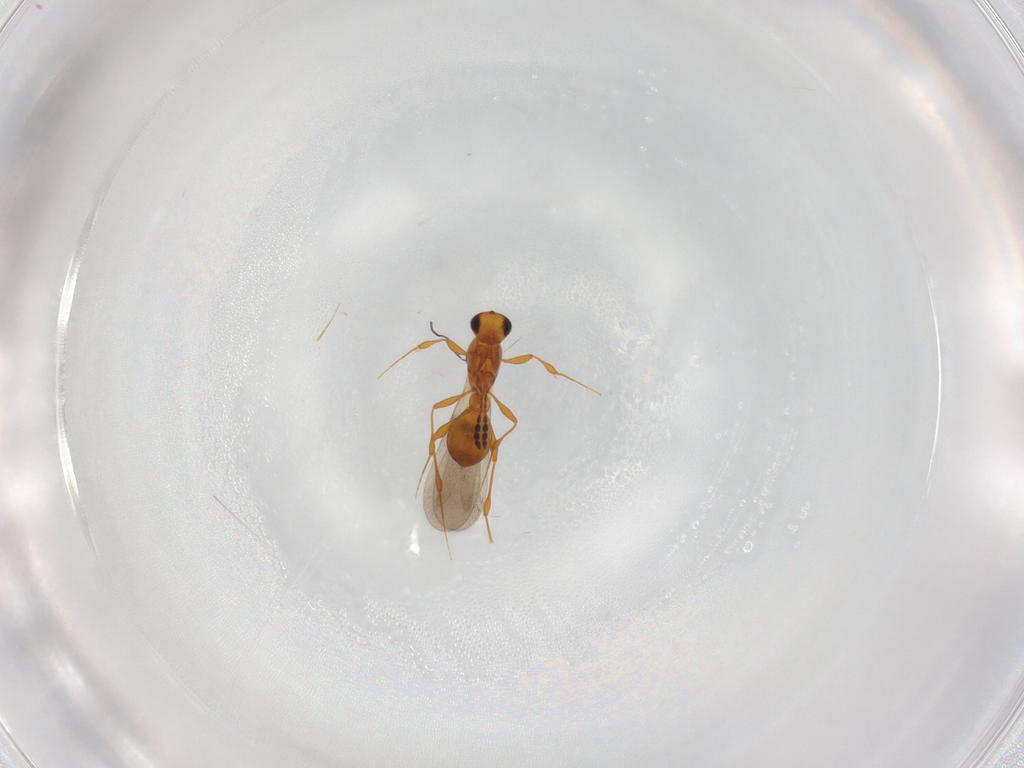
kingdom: Animalia
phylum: Arthropoda
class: Insecta
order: Hymenoptera
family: Platygastridae
